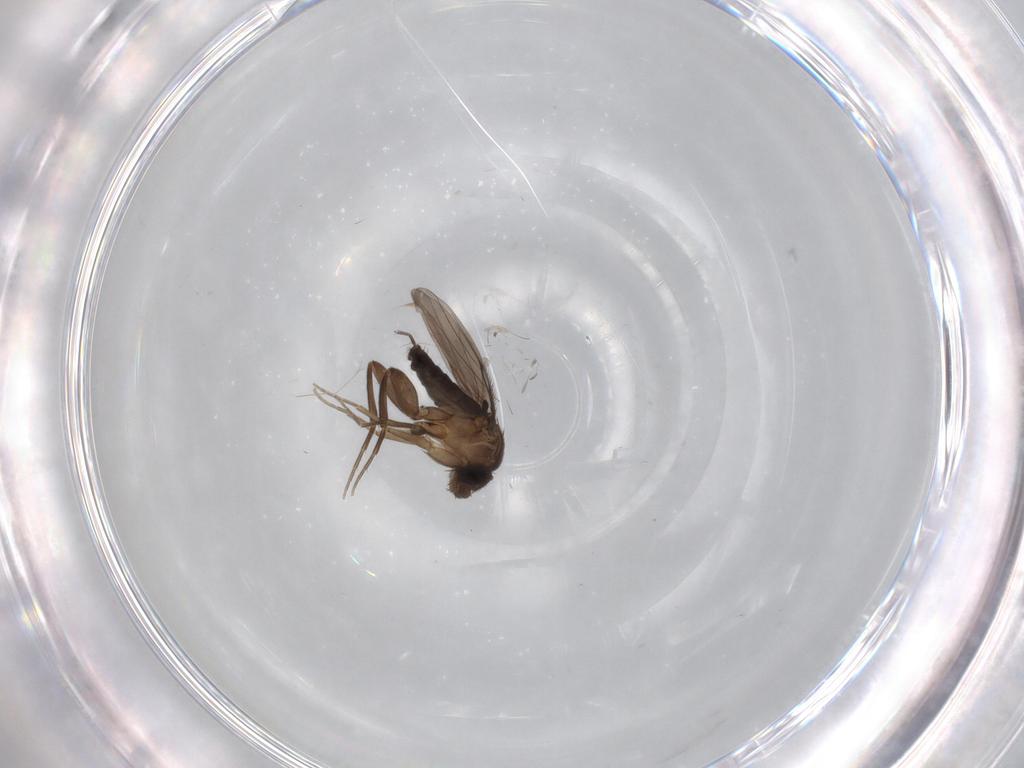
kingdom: Animalia
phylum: Arthropoda
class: Insecta
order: Diptera
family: Phoridae
